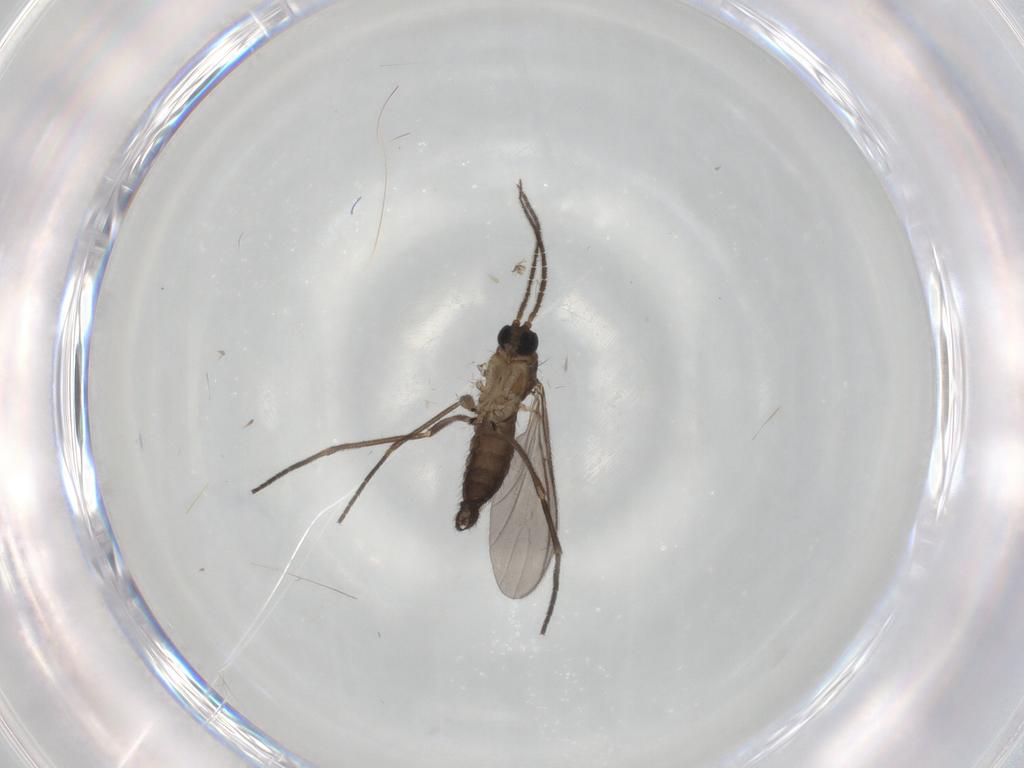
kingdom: Animalia
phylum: Arthropoda
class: Insecta
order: Diptera
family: Sciaridae
